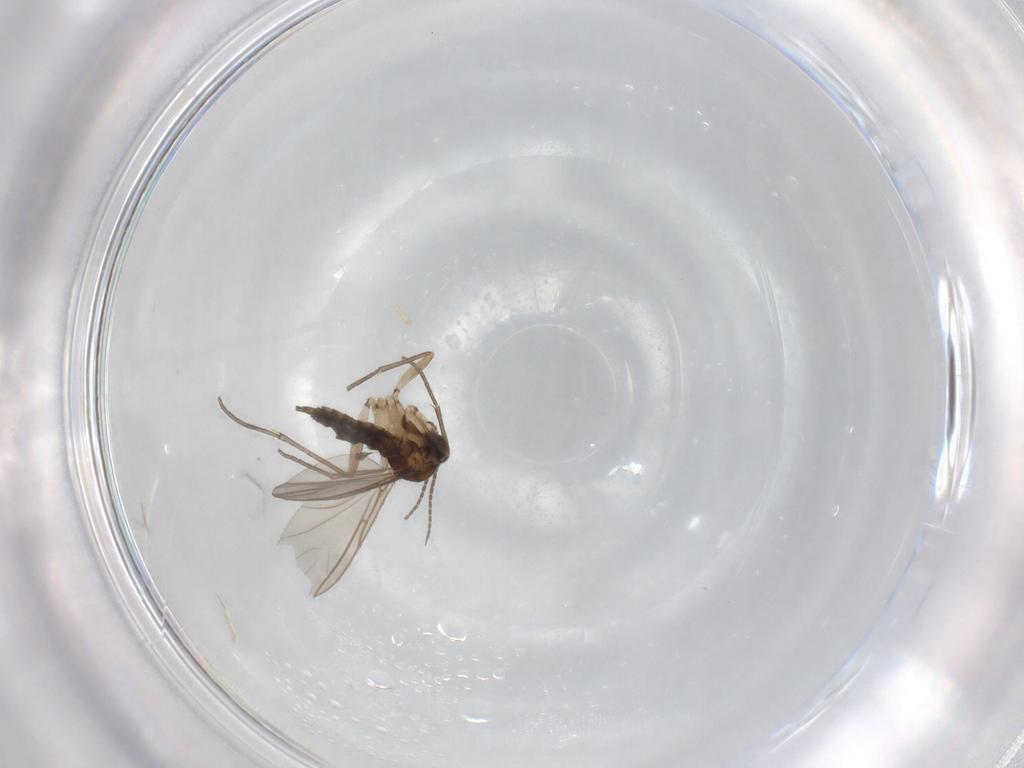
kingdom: Animalia
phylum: Arthropoda
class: Insecta
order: Diptera
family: Sciaridae
